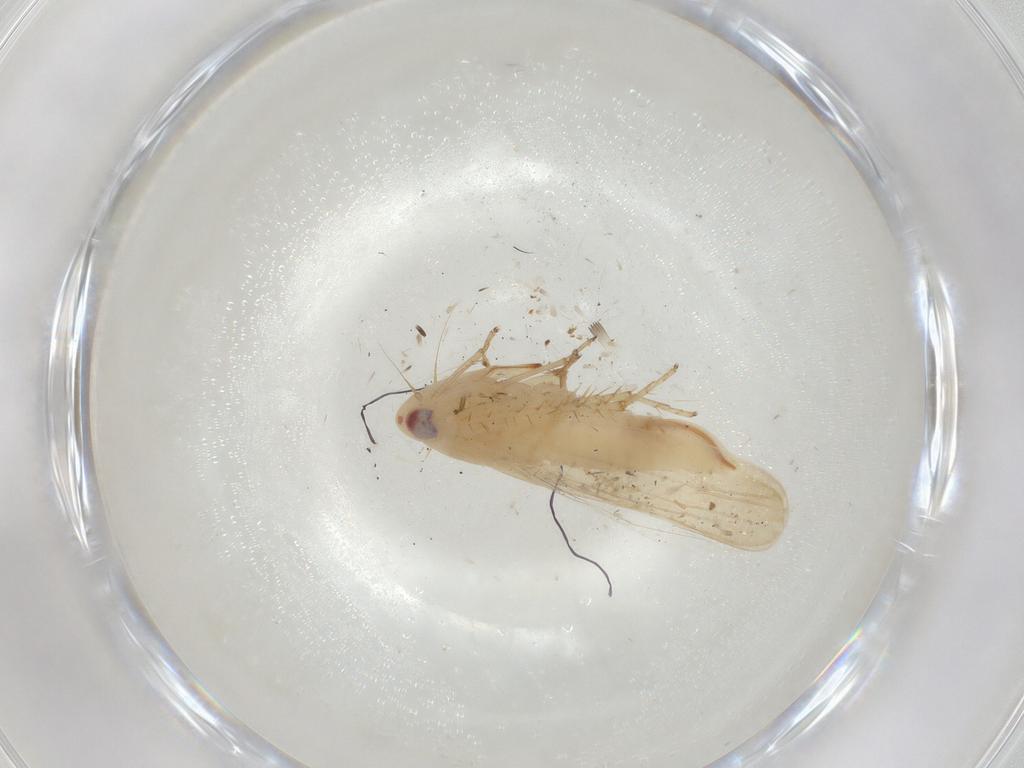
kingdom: Animalia
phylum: Arthropoda
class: Insecta
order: Hemiptera
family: Cicadellidae
